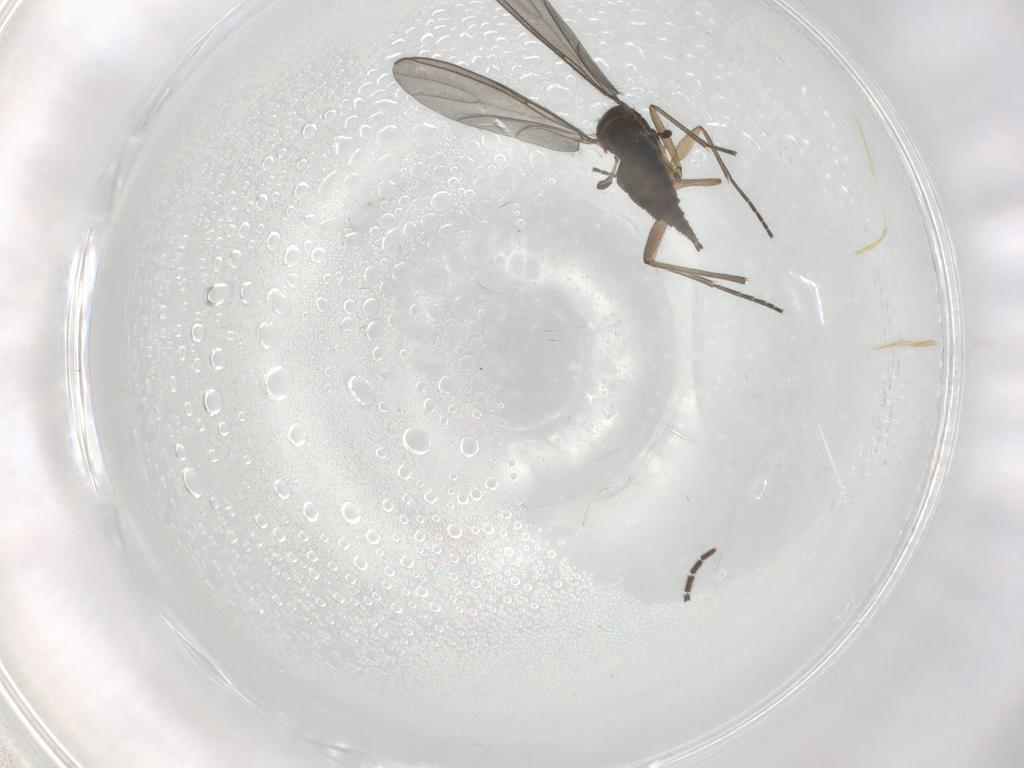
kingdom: Animalia
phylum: Arthropoda
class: Insecta
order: Diptera
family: Sciaridae
